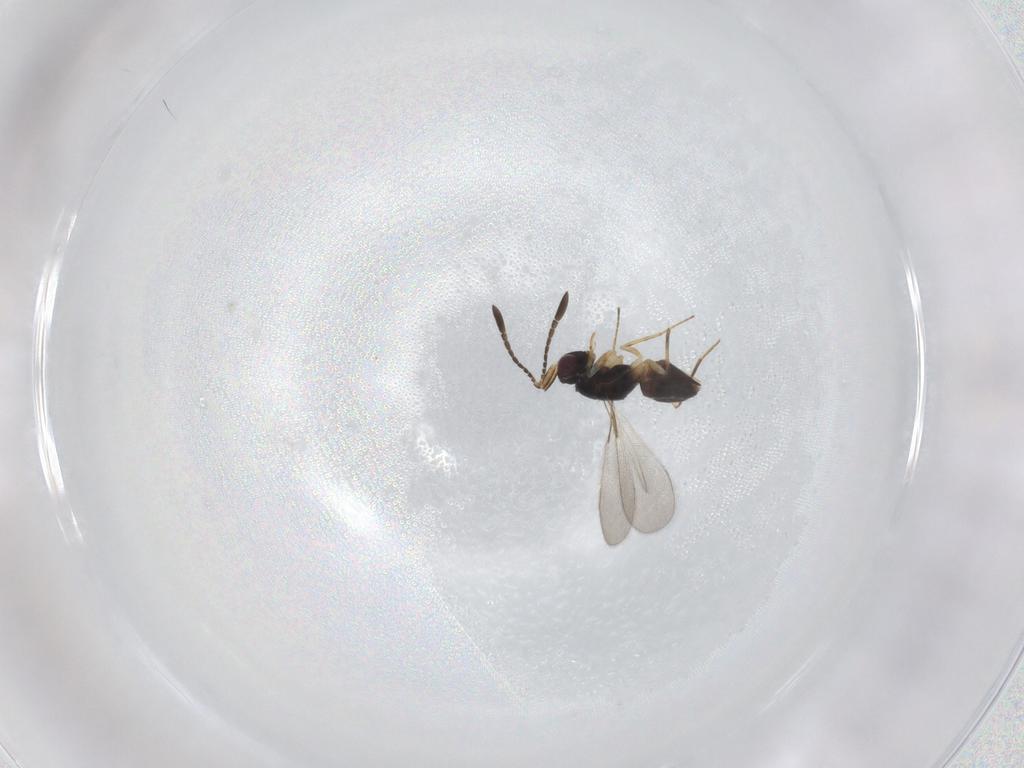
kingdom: Animalia
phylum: Arthropoda
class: Insecta
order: Hymenoptera
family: Mymaridae
